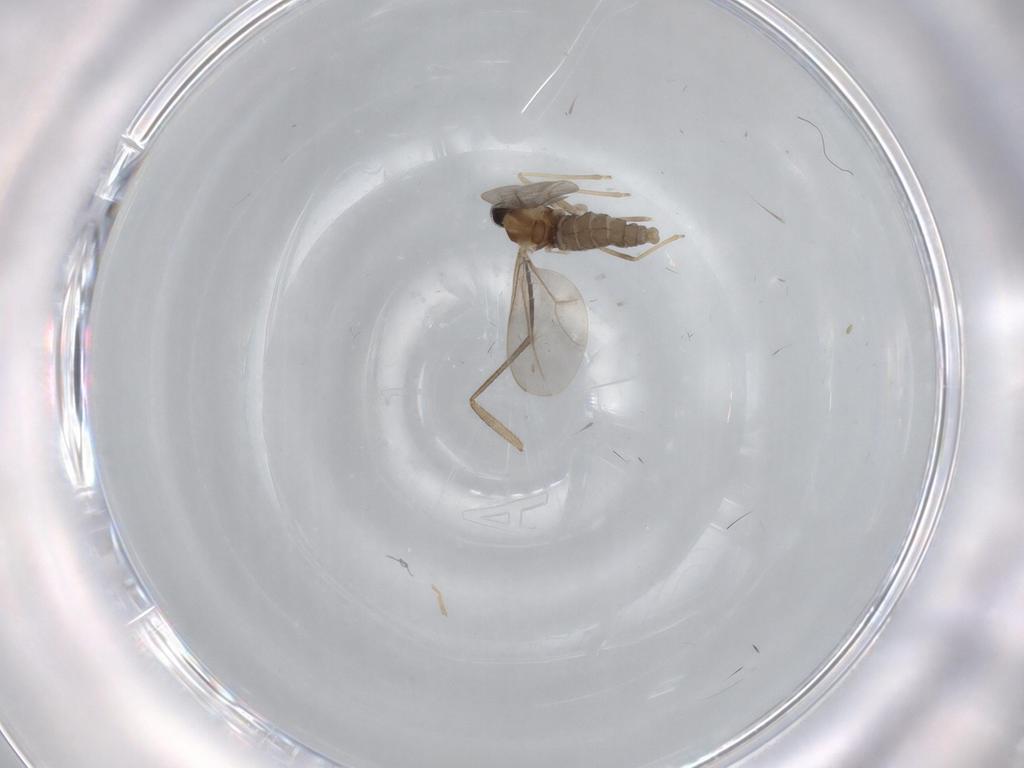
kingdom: Animalia
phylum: Arthropoda
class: Insecta
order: Diptera
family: Cecidomyiidae
